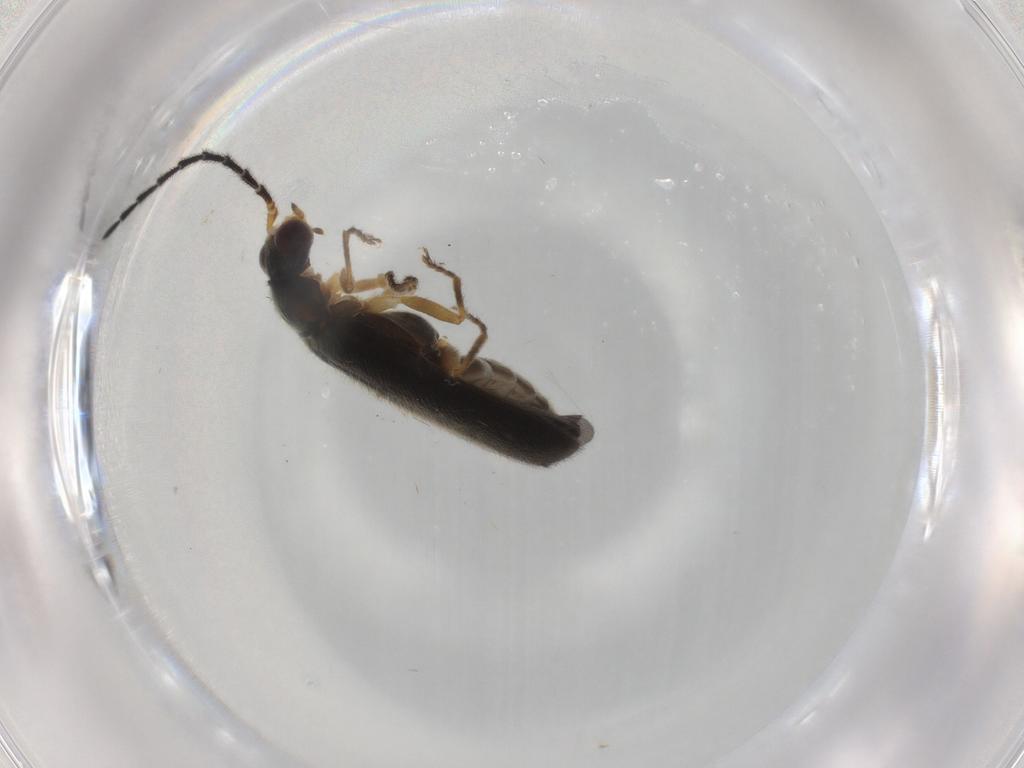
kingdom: Animalia
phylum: Arthropoda
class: Insecta
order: Coleoptera
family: Cantharidae
